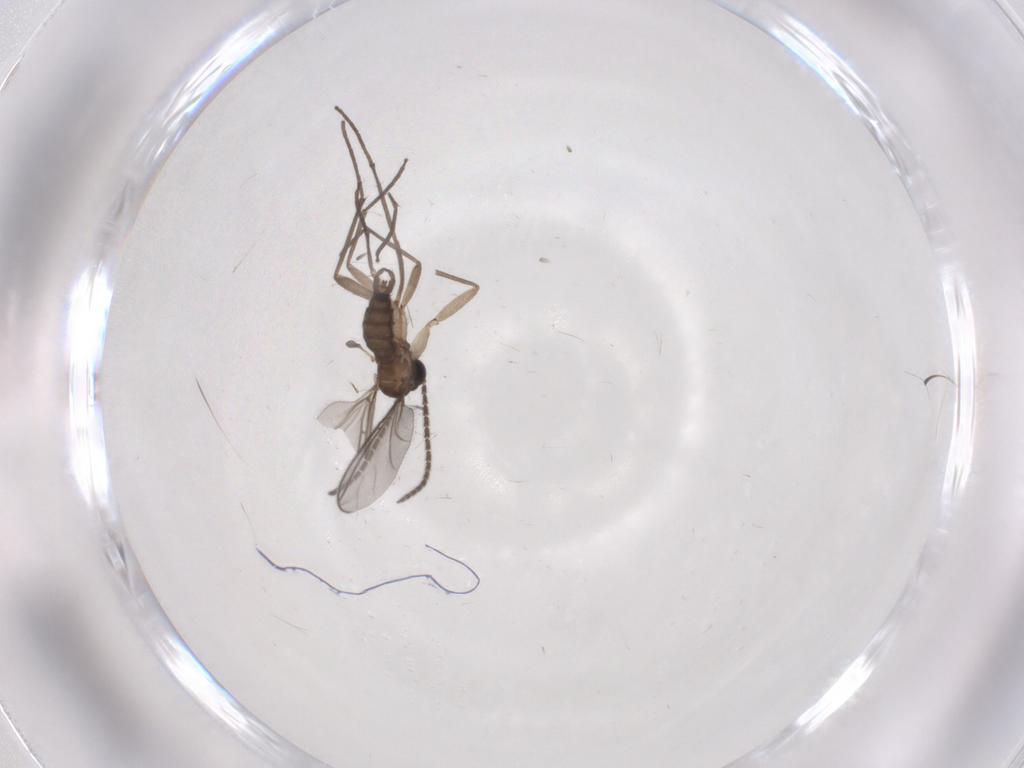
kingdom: Animalia
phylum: Arthropoda
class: Insecta
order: Diptera
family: Sciaridae
